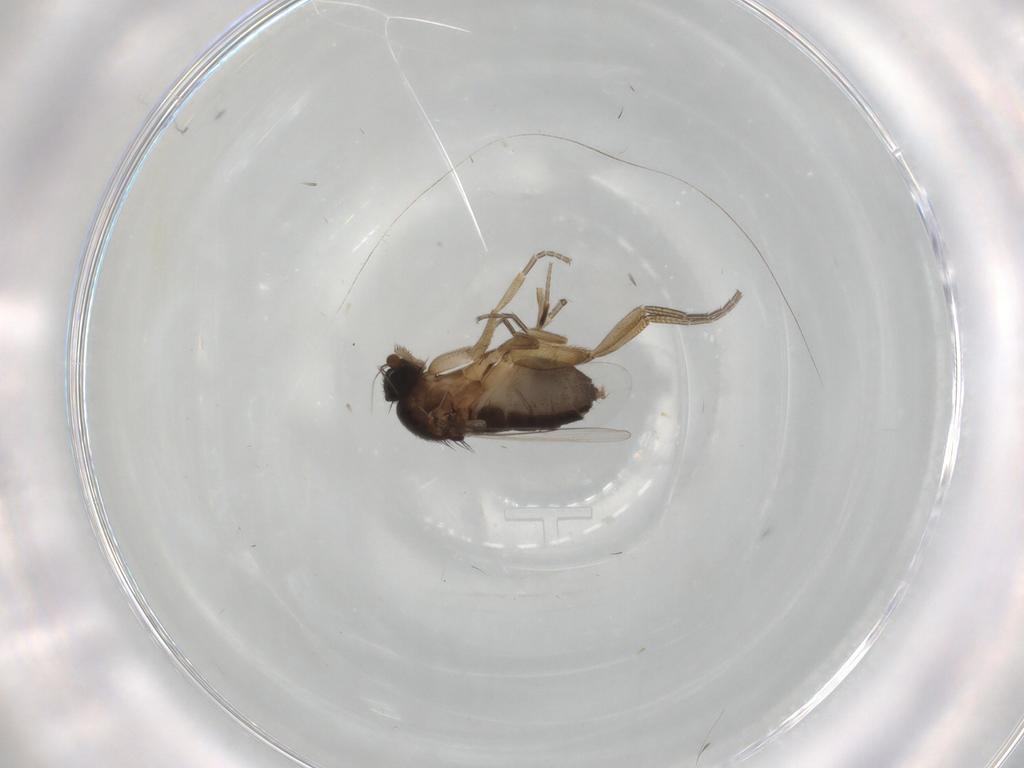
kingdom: Animalia
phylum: Arthropoda
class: Insecta
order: Diptera
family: Phoridae
